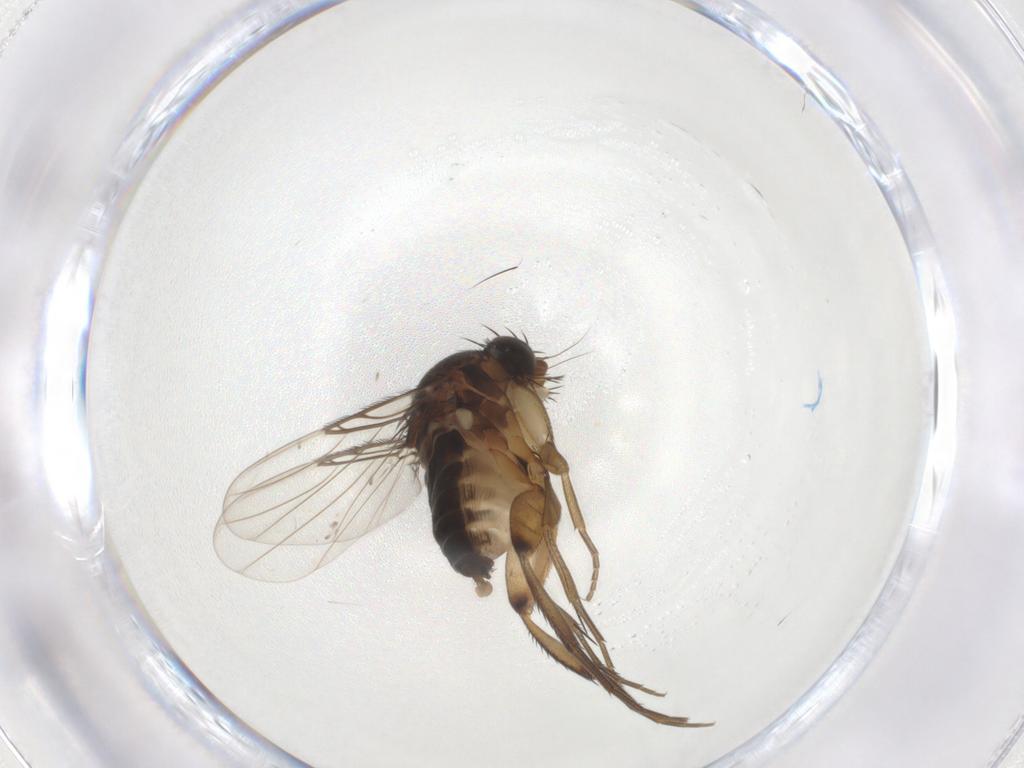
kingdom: Animalia
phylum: Arthropoda
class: Insecta
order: Diptera
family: Phoridae
